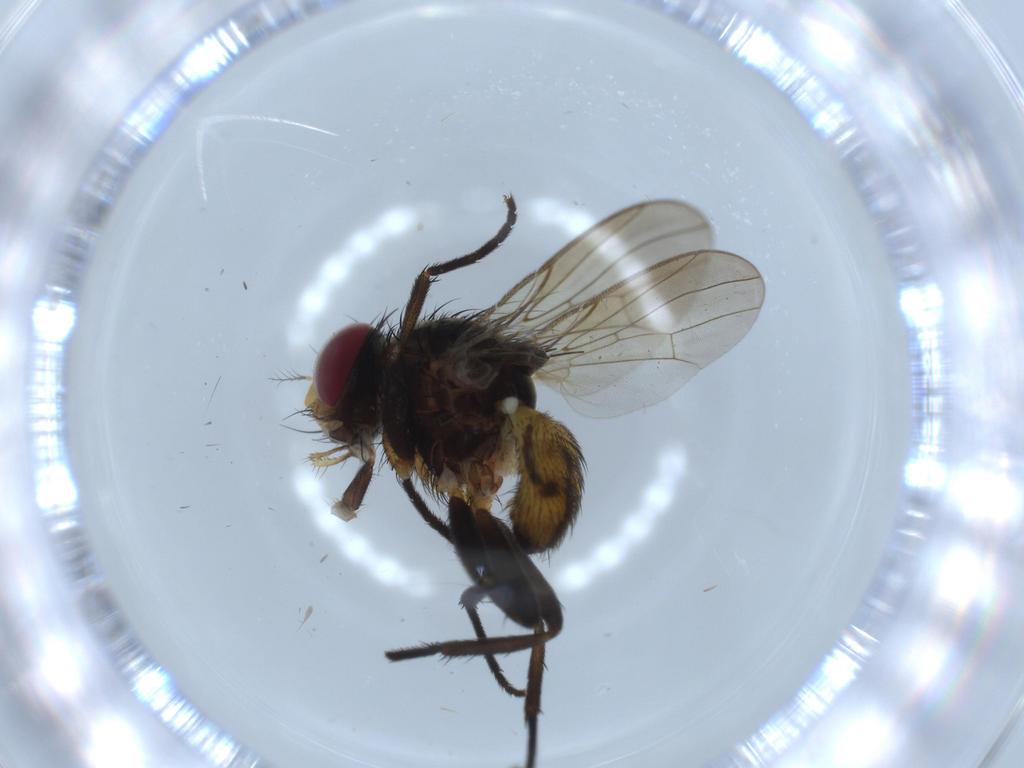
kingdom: Animalia
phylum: Arthropoda
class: Insecta
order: Diptera
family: Anthomyiidae
